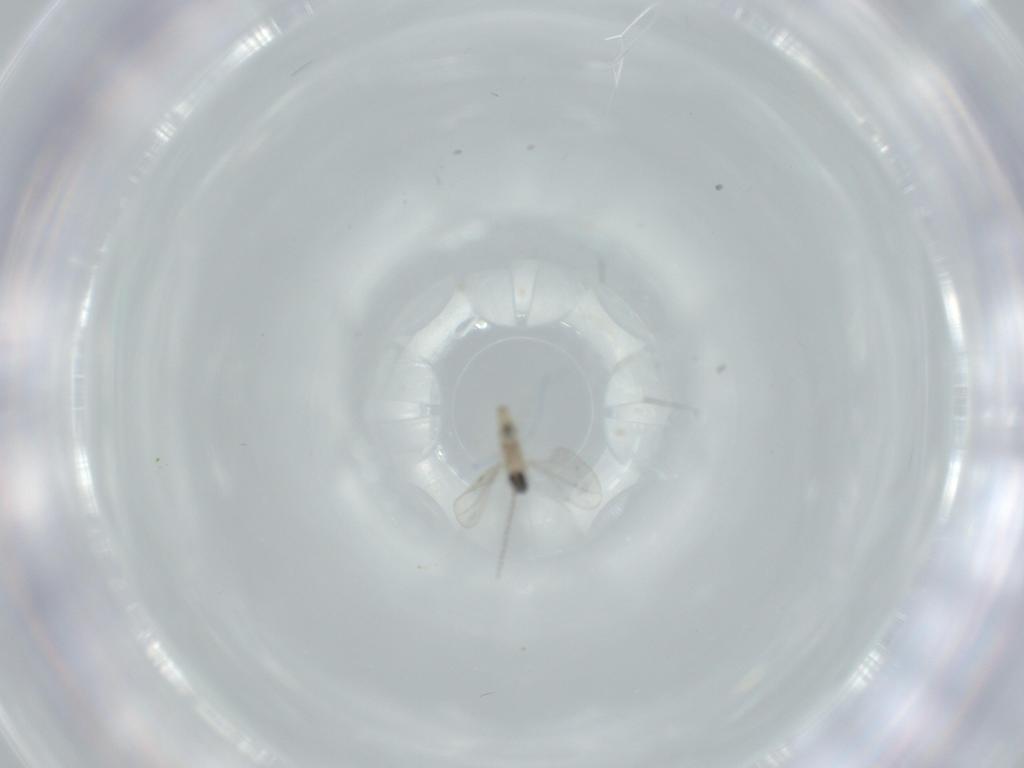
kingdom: Animalia
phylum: Arthropoda
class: Insecta
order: Diptera
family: Cecidomyiidae
